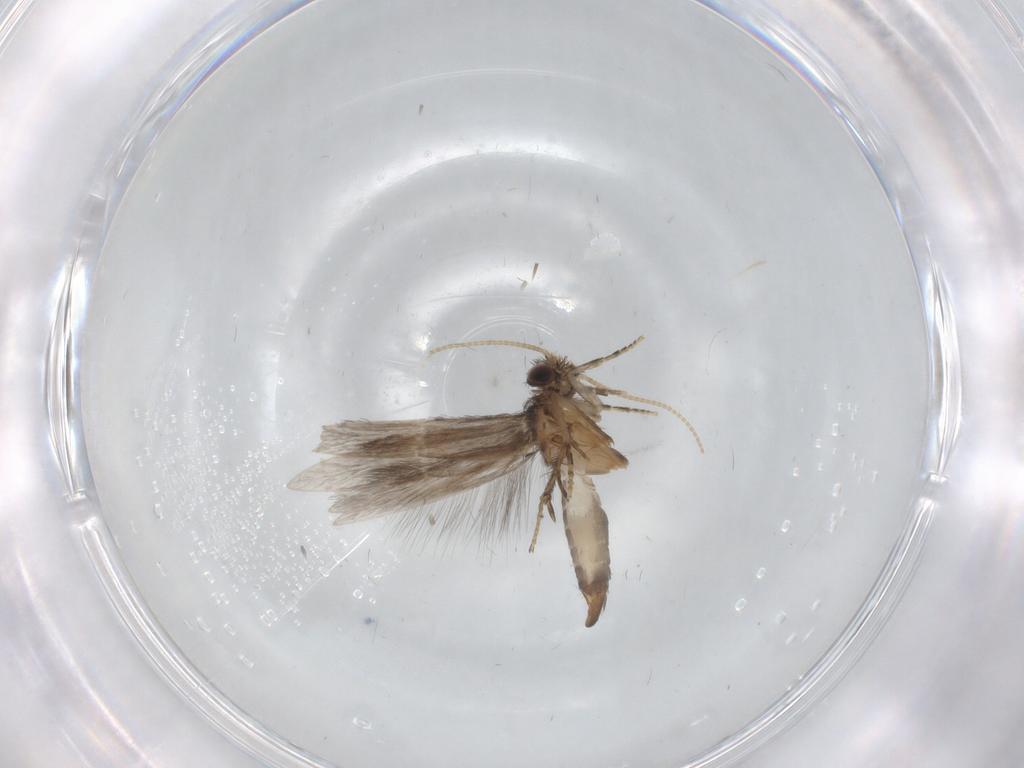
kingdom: Animalia
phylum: Arthropoda
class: Insecta
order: Trichoptera
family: Hydroptilidae
